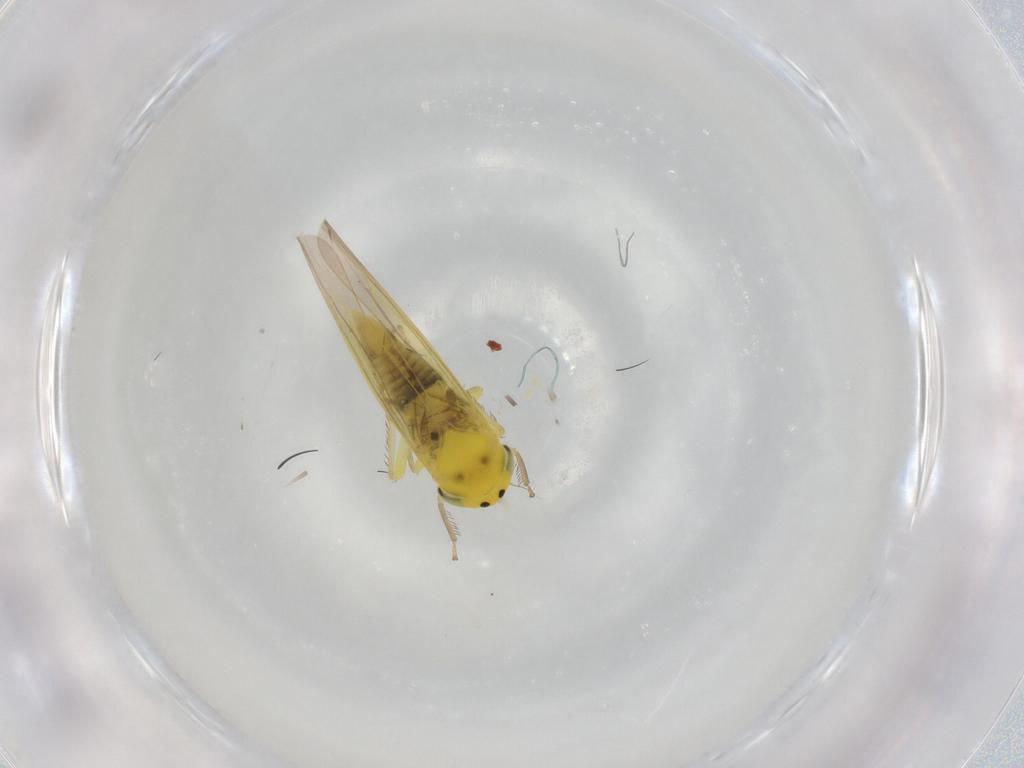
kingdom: Animalia
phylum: Arthropoda
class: Insecta
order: Hemiptera
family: Cicadellidae
